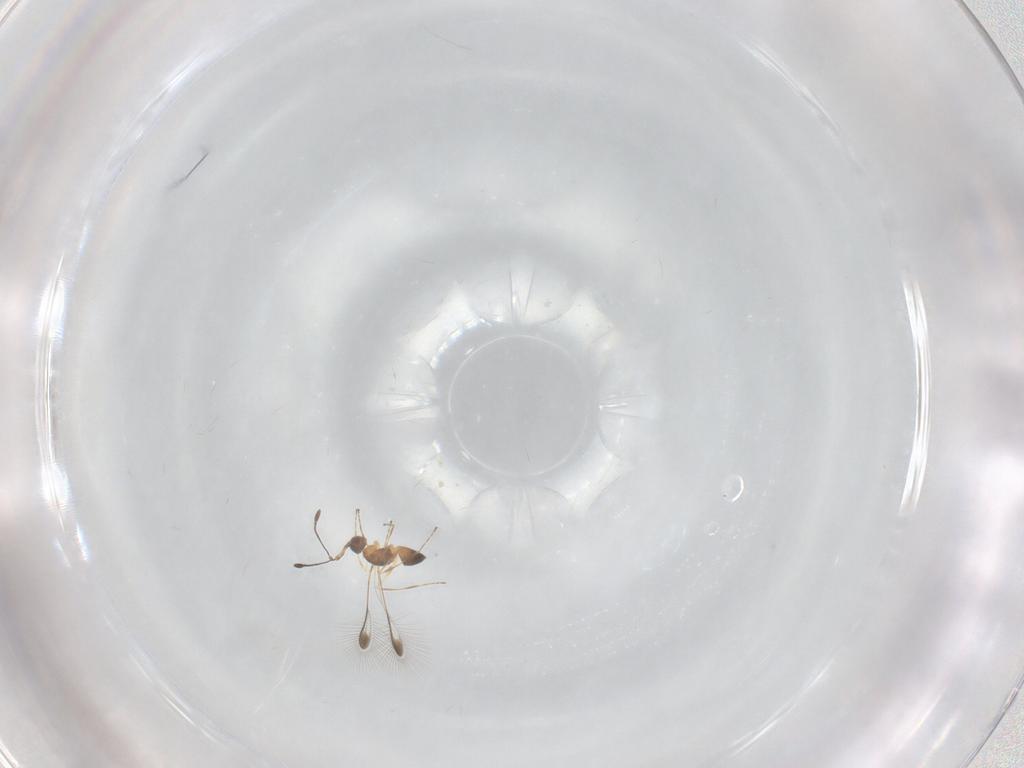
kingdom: Animalia
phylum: Arthropoda
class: Insecta
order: Hymenoptera
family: Mymaridae
